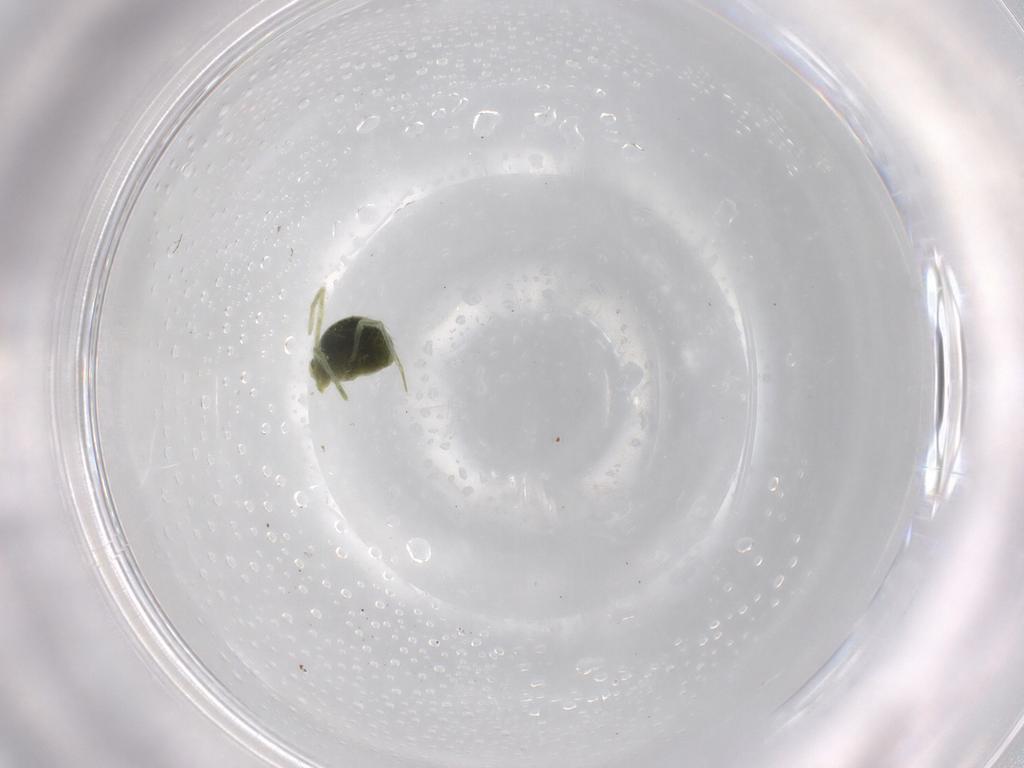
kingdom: Animalia
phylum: Arthropoda
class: Arachnida
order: Trombidiformes
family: Penthaleidae
